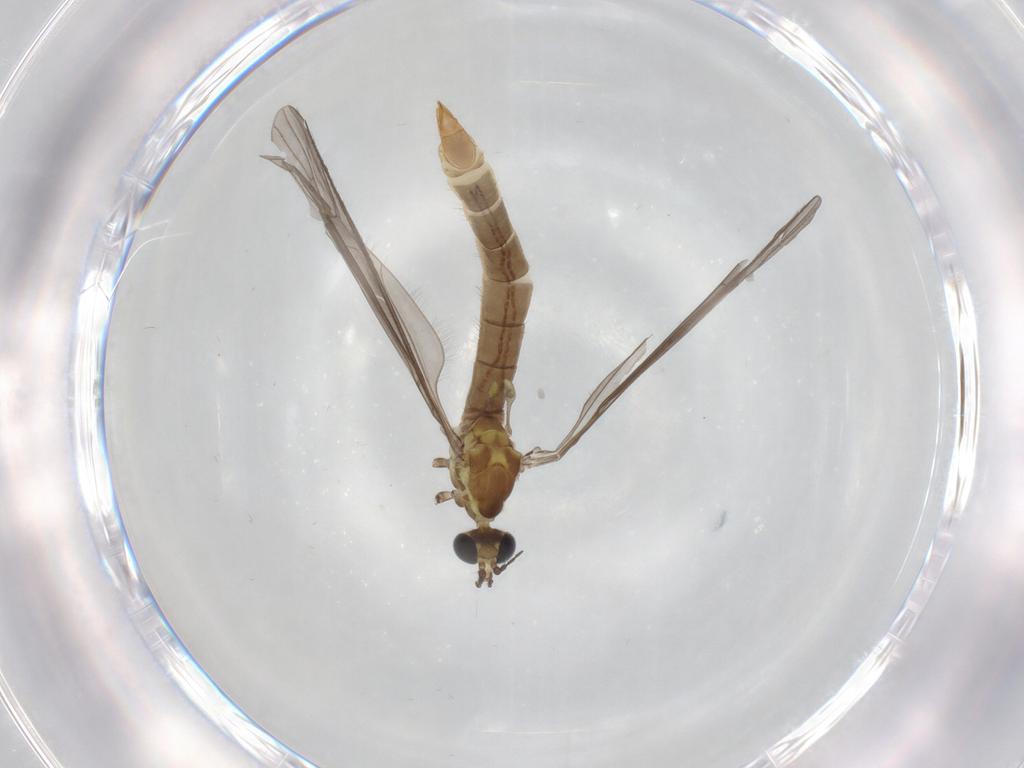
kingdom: Animalia
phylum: Arthropoda
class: Insecta
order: Diptera
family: Limoniidae
